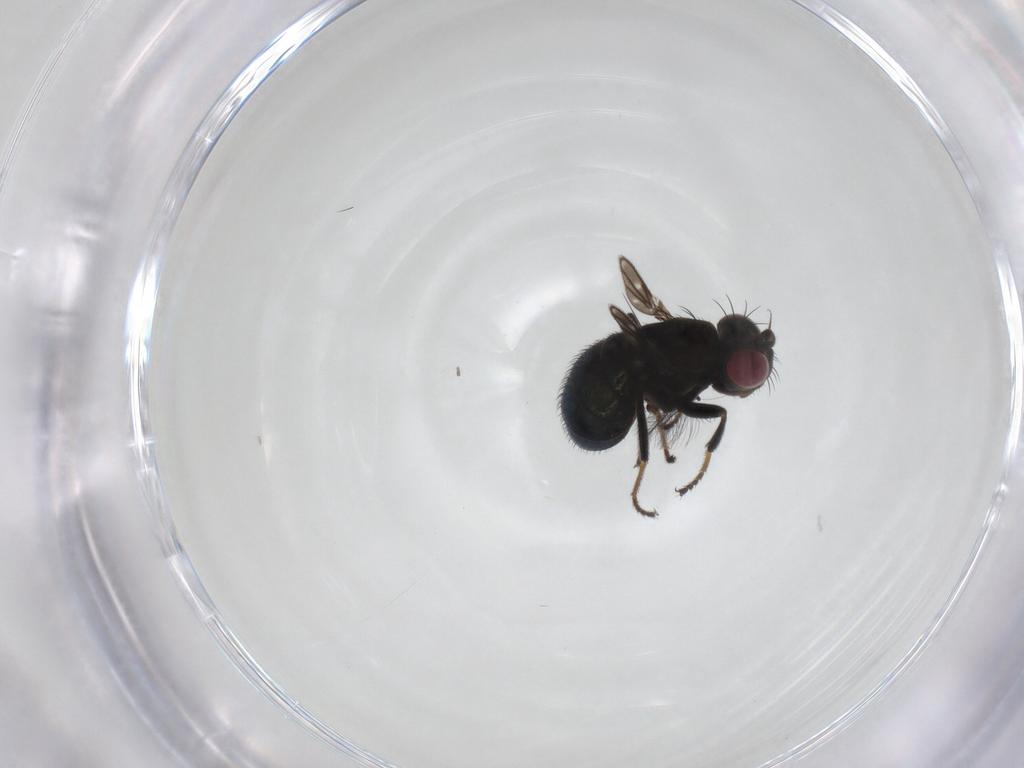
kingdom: Animalia
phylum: Arthropoda
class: Insecta
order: Diptera
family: Ephydridae
